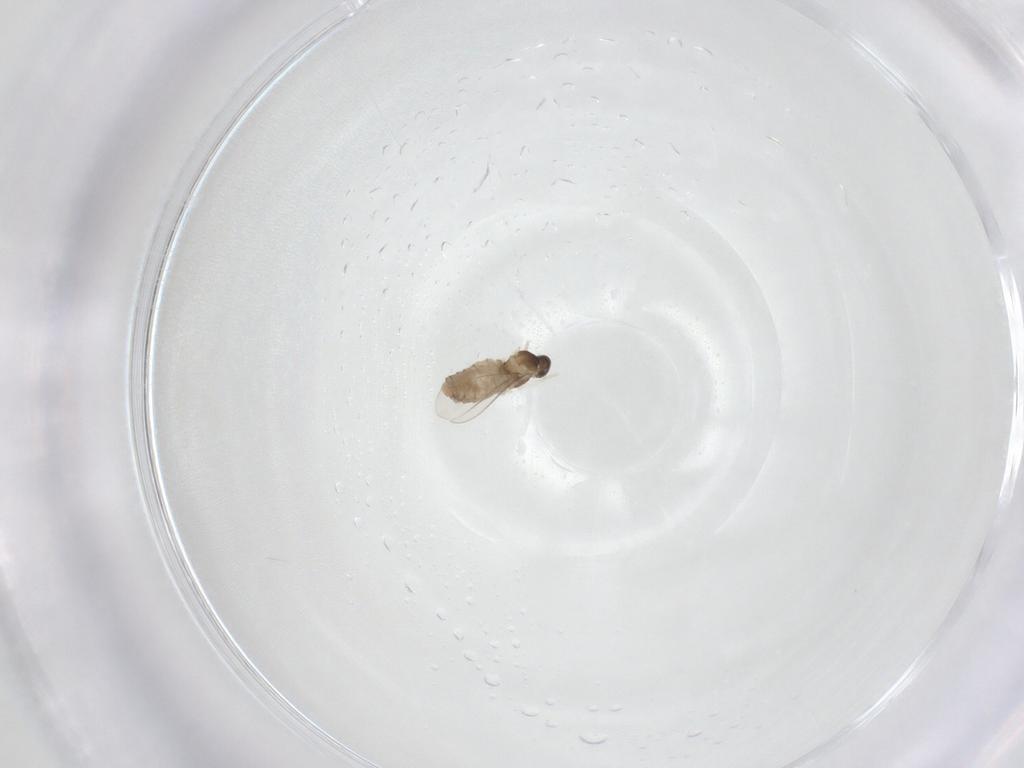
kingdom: Animalia
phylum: Arthropoda
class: Insecta
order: Diptera
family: Cecidomyiidae
